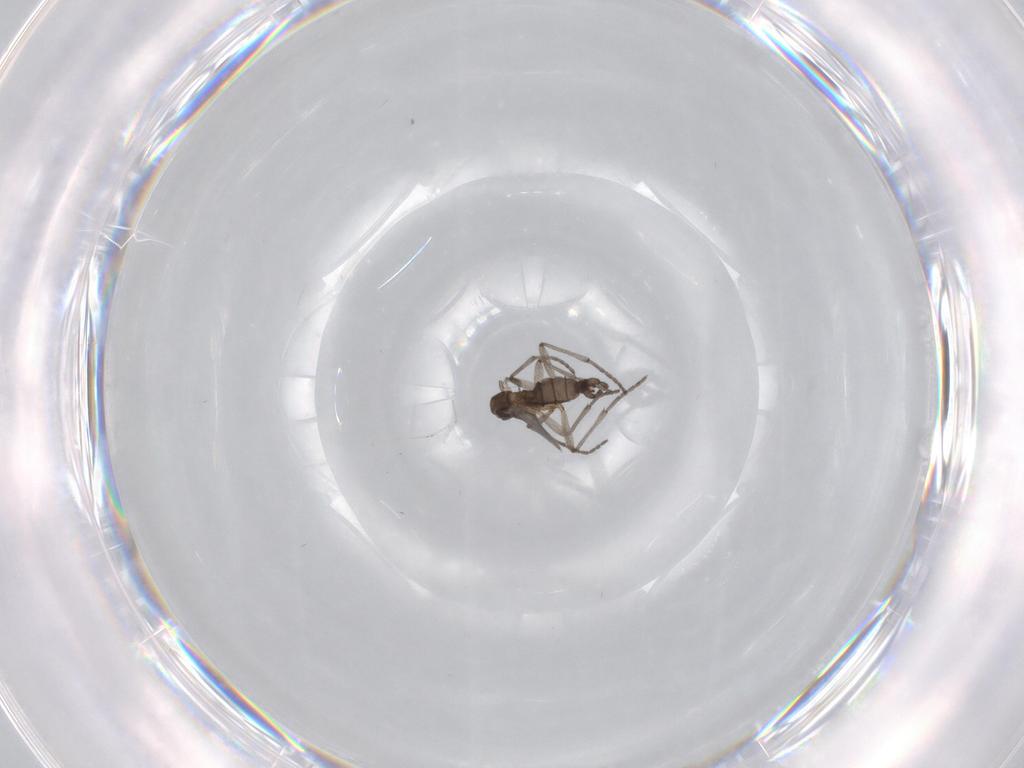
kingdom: Animalia
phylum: Arthropoda
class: Insecta
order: Diptera
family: Sciaridae
